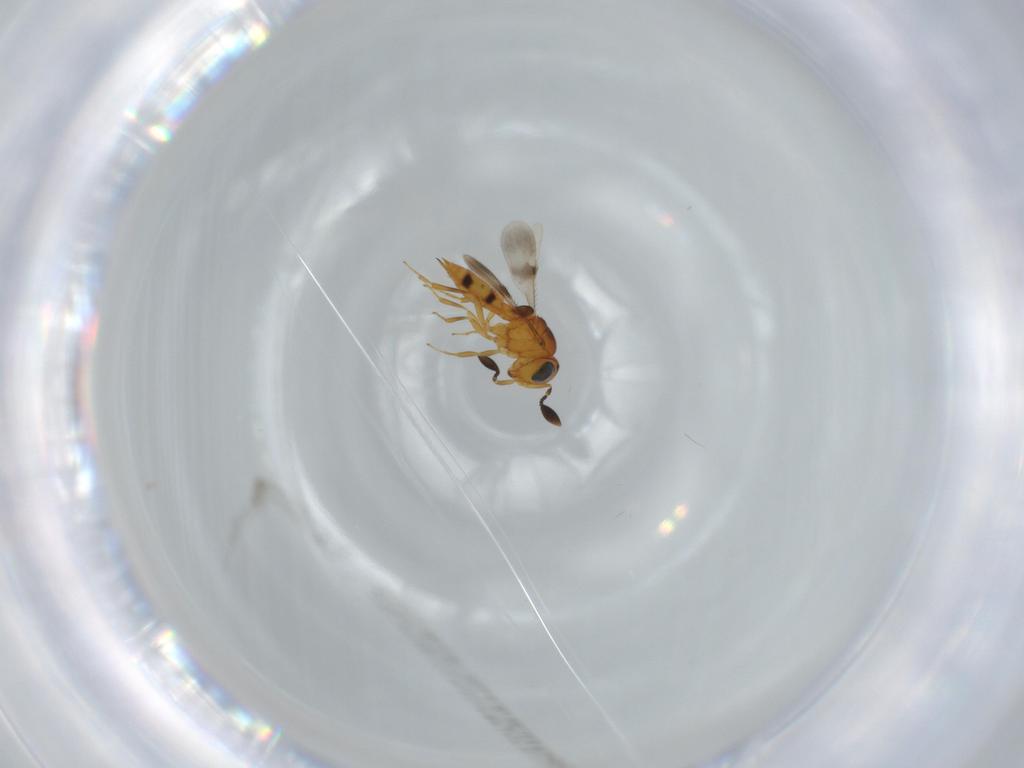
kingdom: Animalia
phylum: Arthropoda
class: Insecta
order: Hymenoptera
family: Scelionidae
